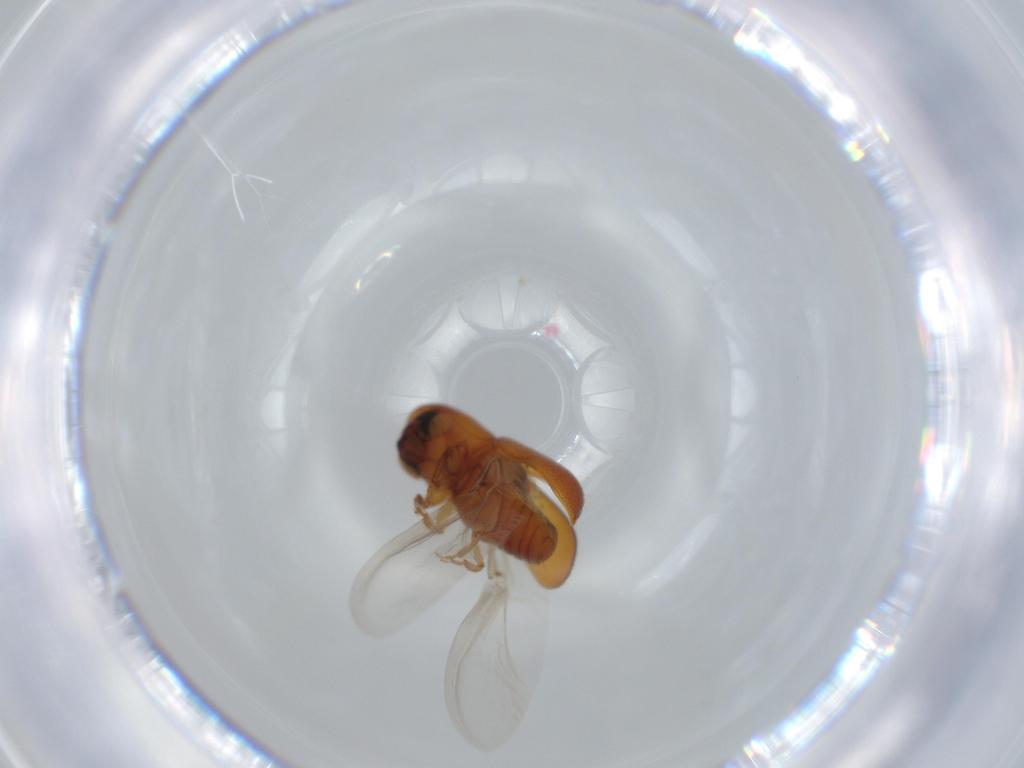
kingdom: Animalia
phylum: Arthropoda
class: Insecta
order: Coleoptera
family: Curculionidae
